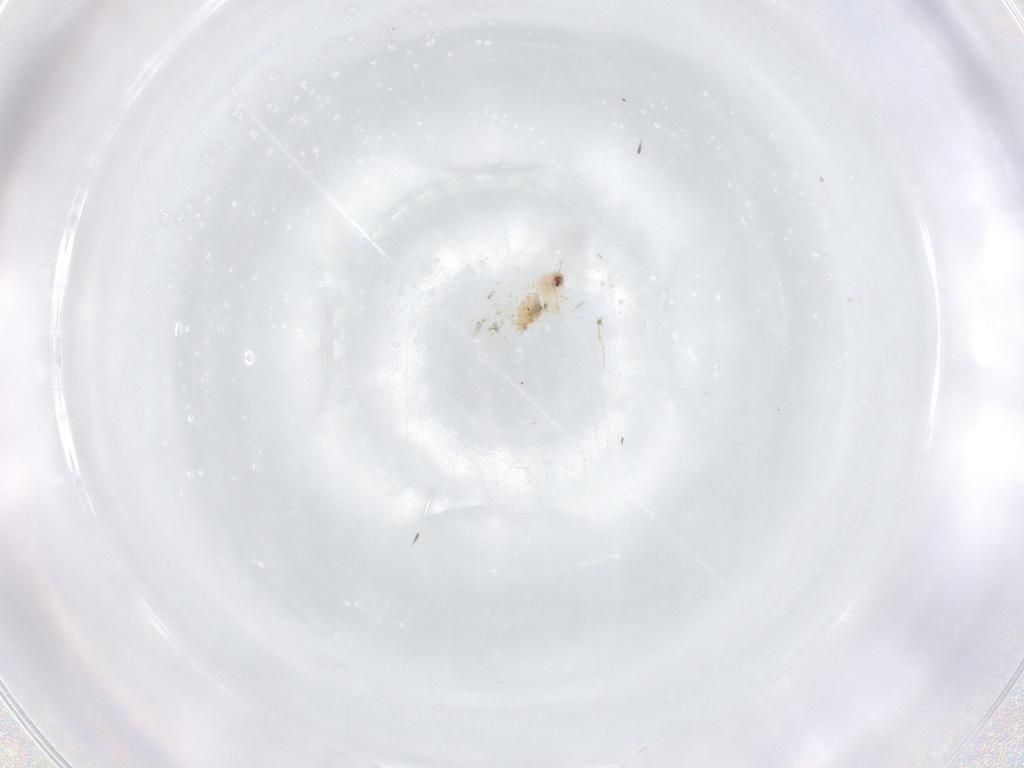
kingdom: Animalia
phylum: Arthropoda
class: Insecta
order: Hemiptera
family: Aleyrodidae
